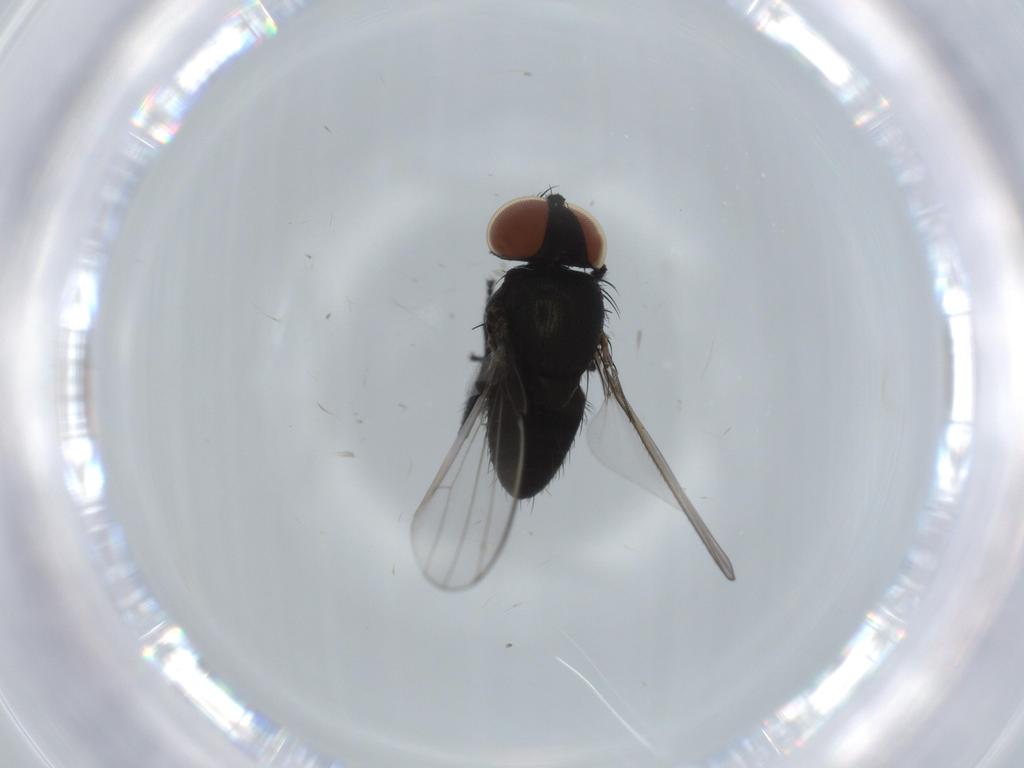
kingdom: Animalia
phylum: Arthropoda
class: Insecta
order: Diptera
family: Milichiidae
